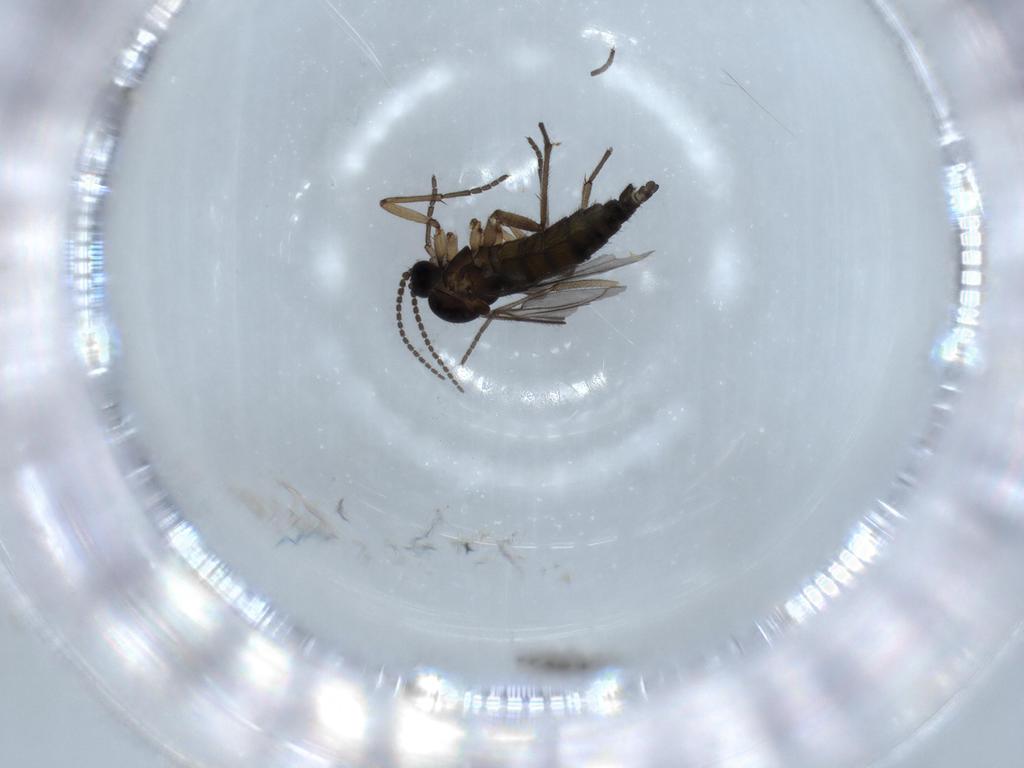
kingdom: Animalia
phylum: Arthropoda
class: Insecta
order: Diptera
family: Sciaridae
